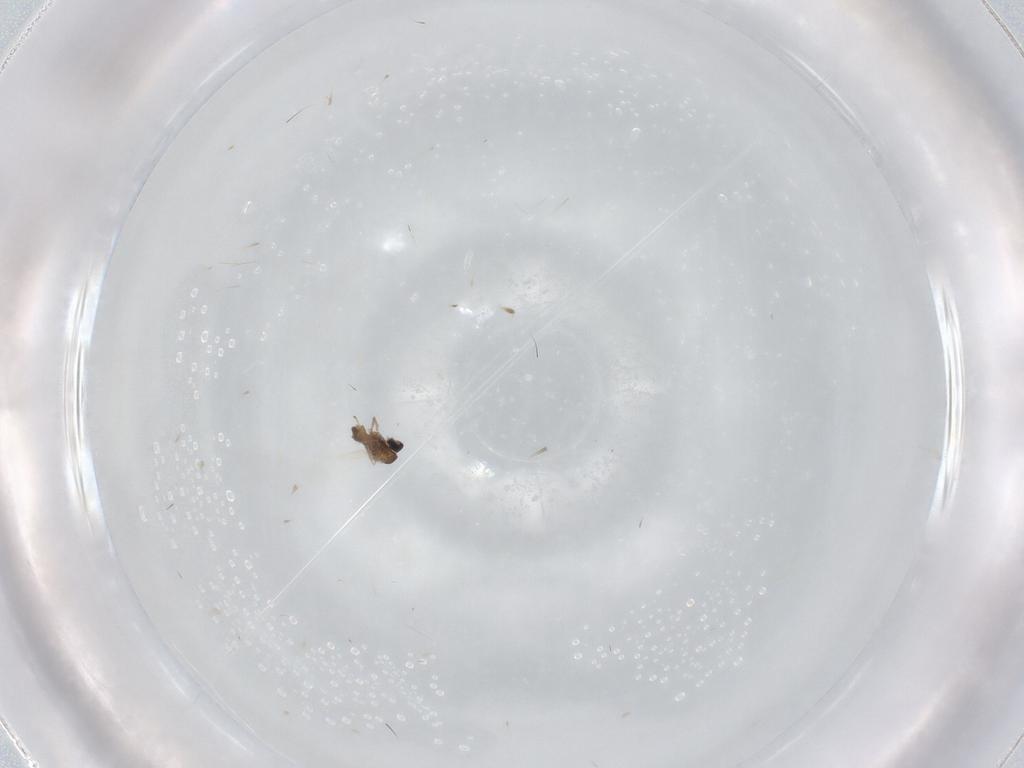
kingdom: Animalia
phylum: Arthropoda
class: Insecta
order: Diptera
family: Cecidomyiidae
